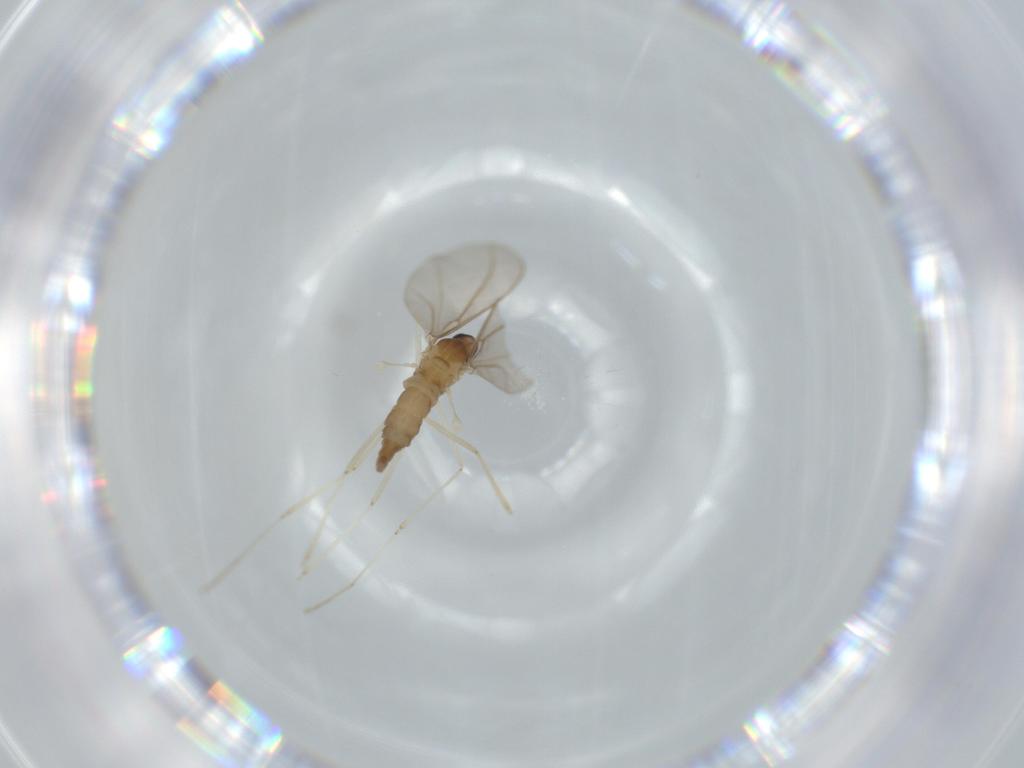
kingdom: Animalia
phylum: Arthropoda
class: Insecta
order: Diptera
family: Cecidomyiidae
